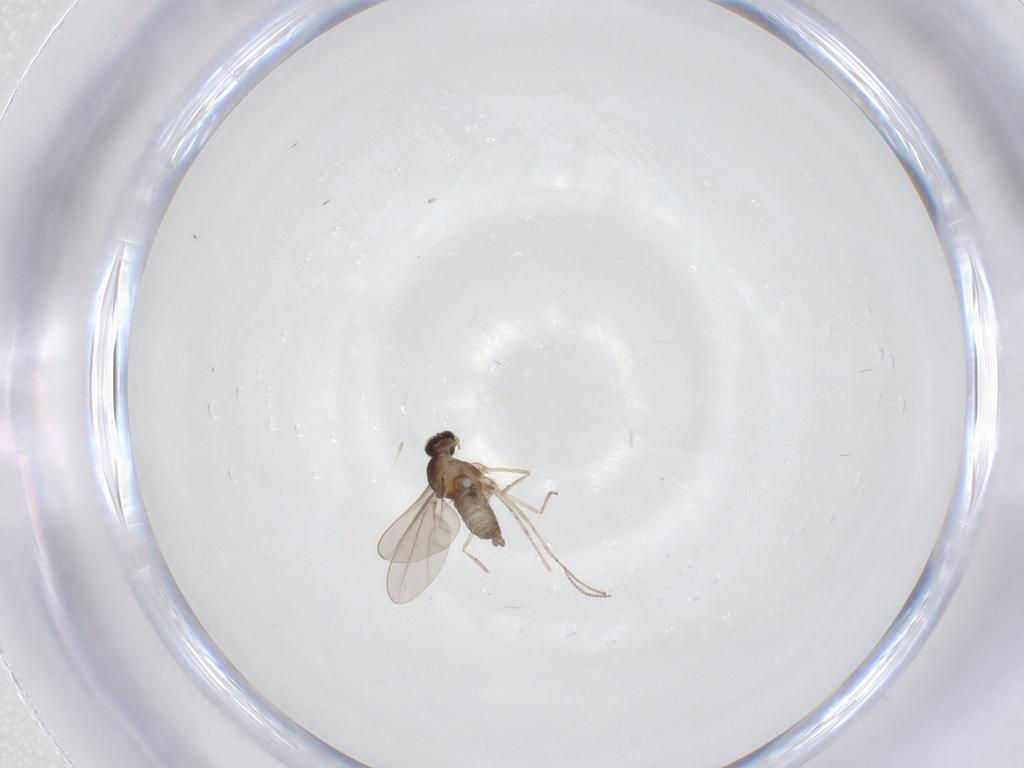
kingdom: Animalia
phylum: Arthropoda
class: Insecta
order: Diptera
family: Cecidomyiidae
